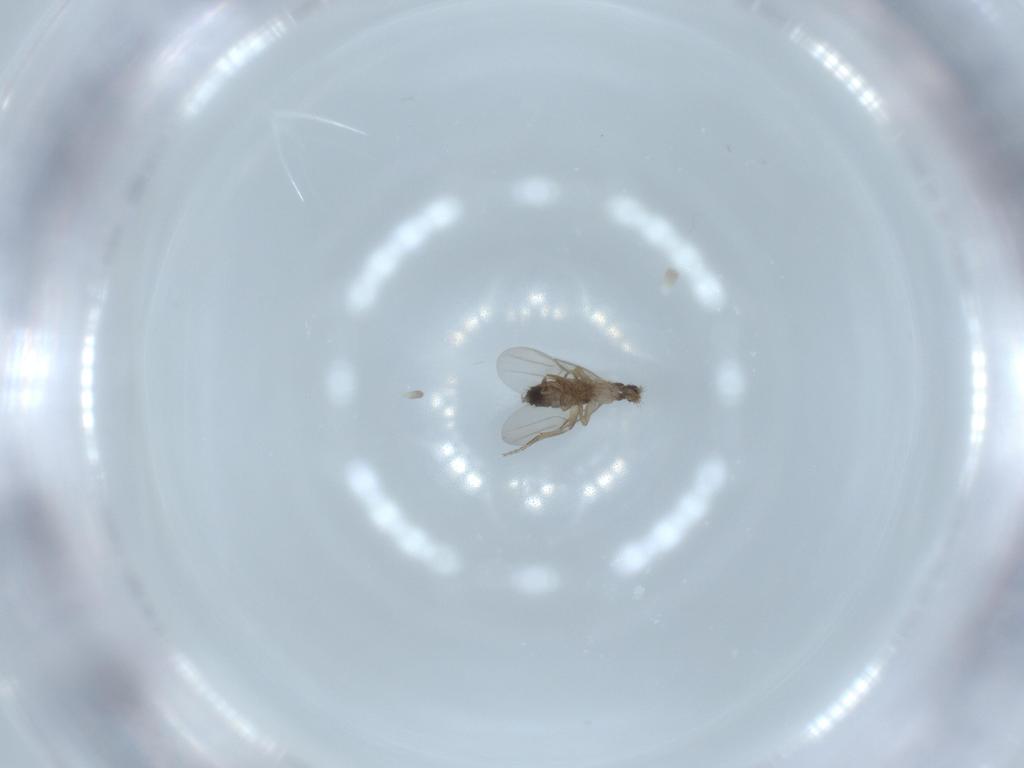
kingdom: Animalia
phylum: Arthropoda
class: Insecta
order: Diptera
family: Phoridae
